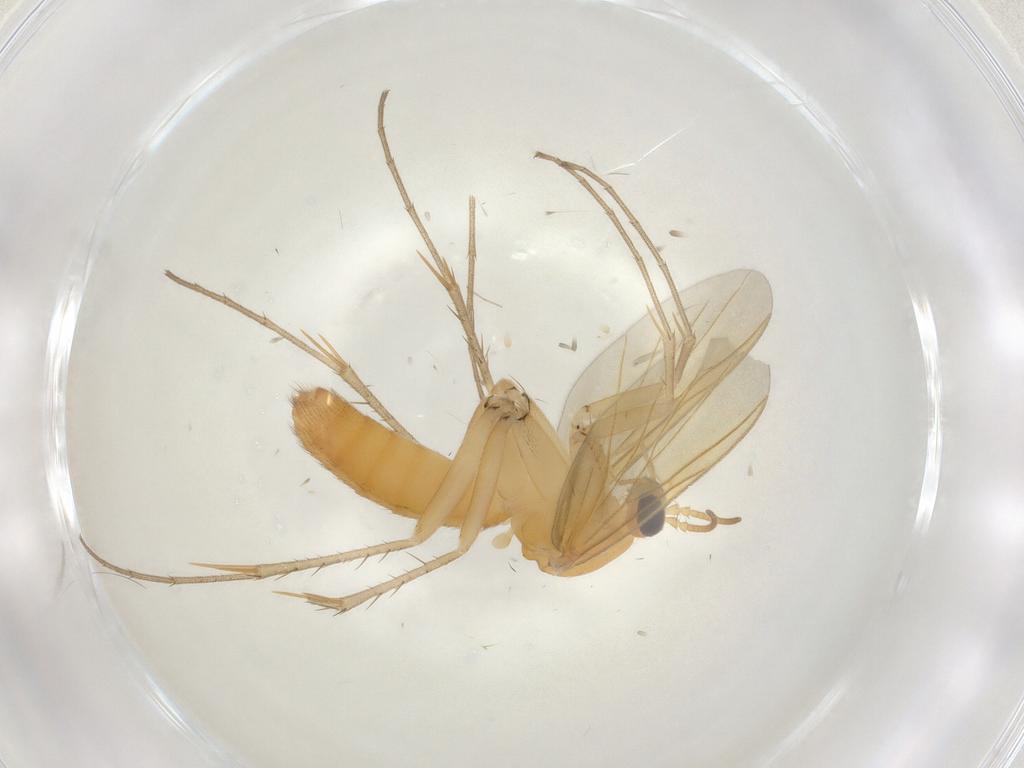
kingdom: Animalia
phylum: Arthropoda
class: Insecta
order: Diptera
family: Mycetophilidae
